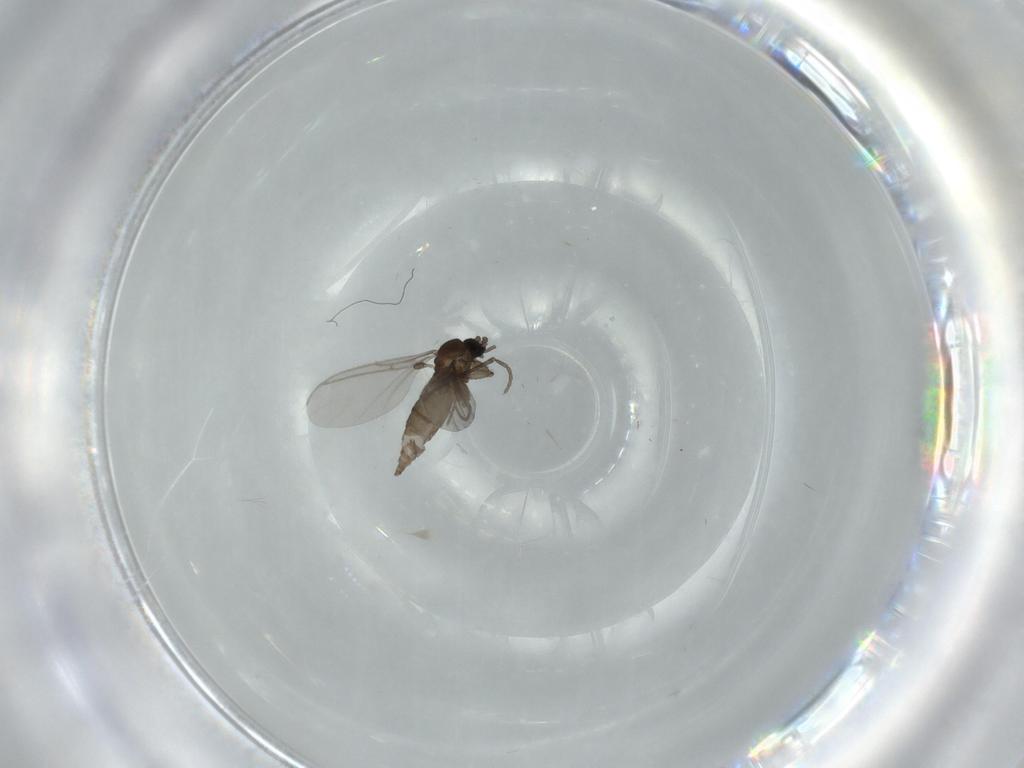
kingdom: Animalia
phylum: Arthropoda
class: Insecta
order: Diptera
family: Sciaridae
